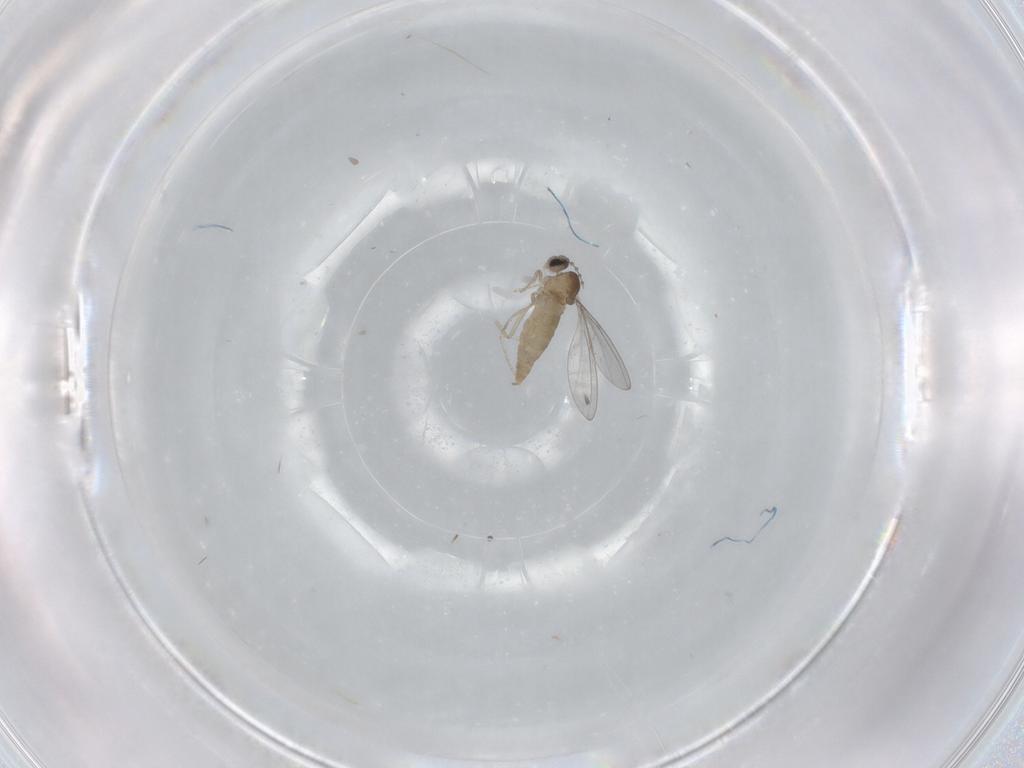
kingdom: Animalia
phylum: Arthropoda
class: Insecta
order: Diptera
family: Cecidomyiidae
